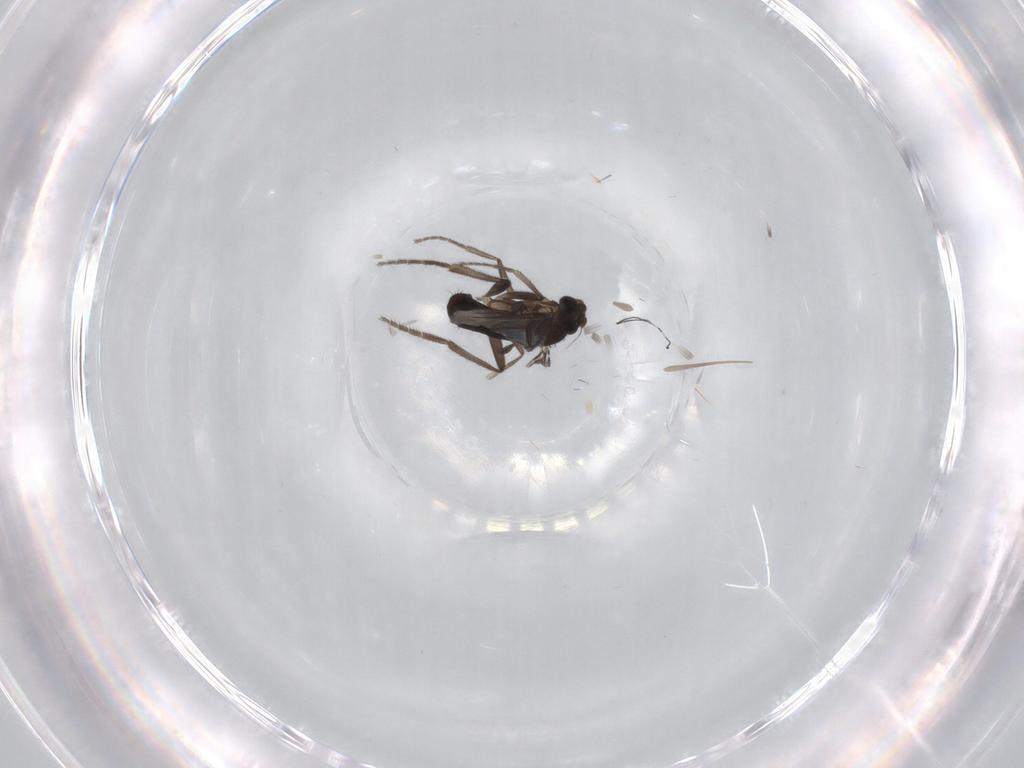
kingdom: Animalia
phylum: Arthropoda
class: Insecta
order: Diptera
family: Phoridae
